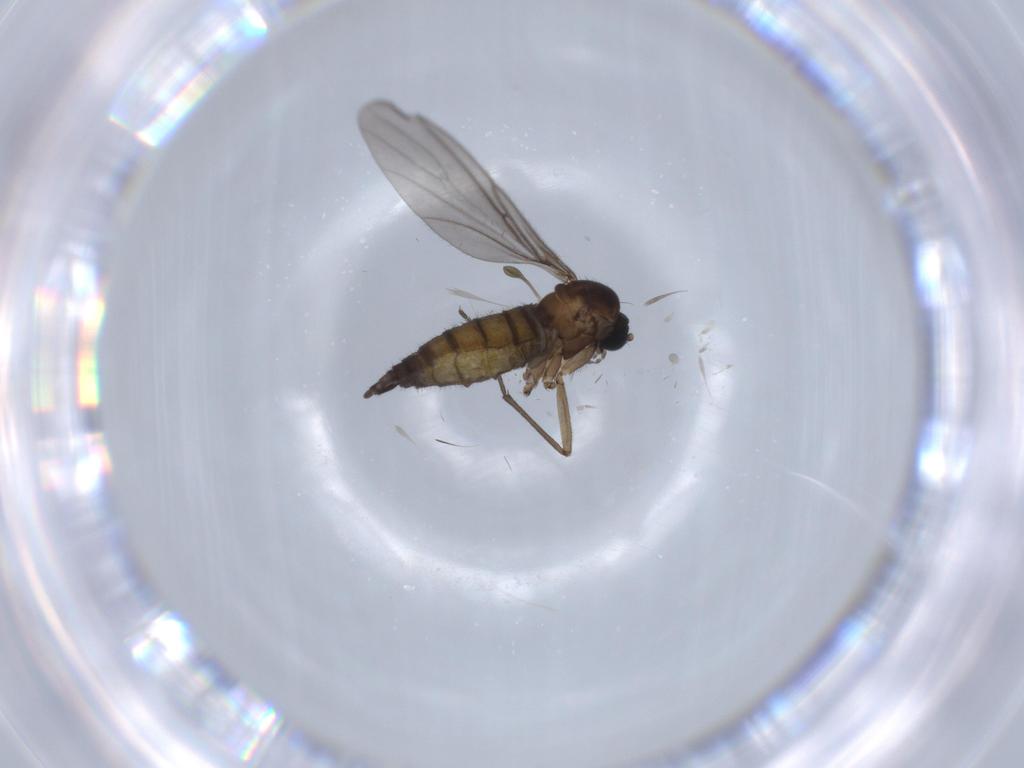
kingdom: Animalia
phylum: Arthropoda
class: Insecta
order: Diptera
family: Sciaridae
